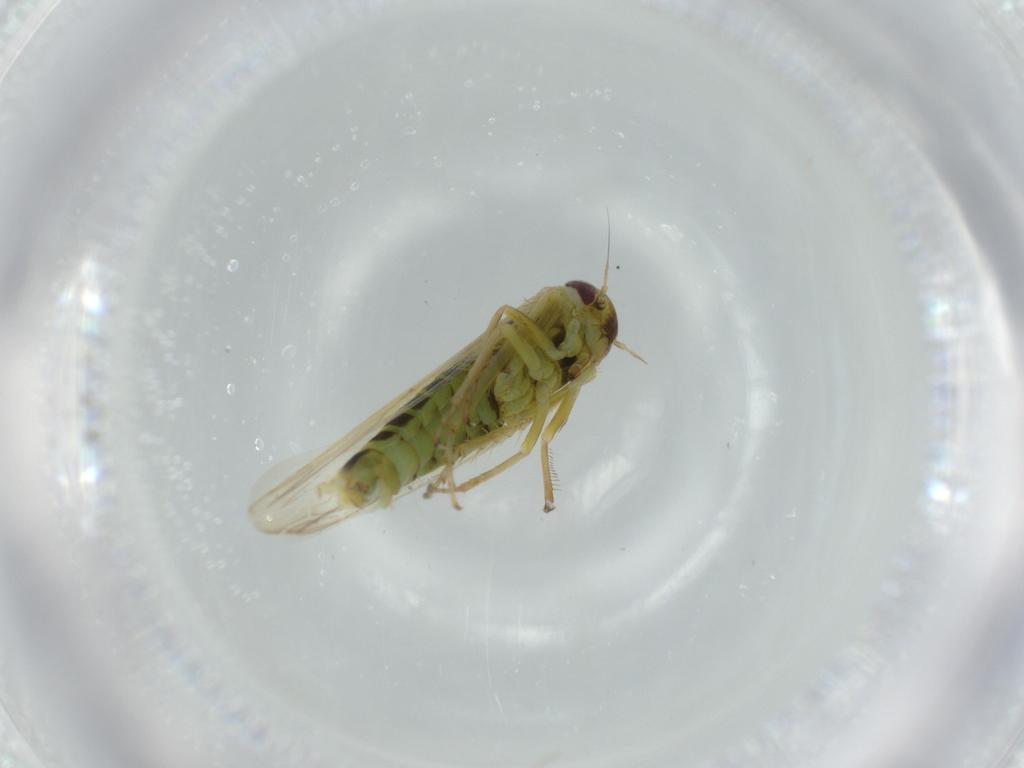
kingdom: Animalia
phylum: Arthropoda
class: Insecta
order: Hemiptera
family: Cicadellidae
